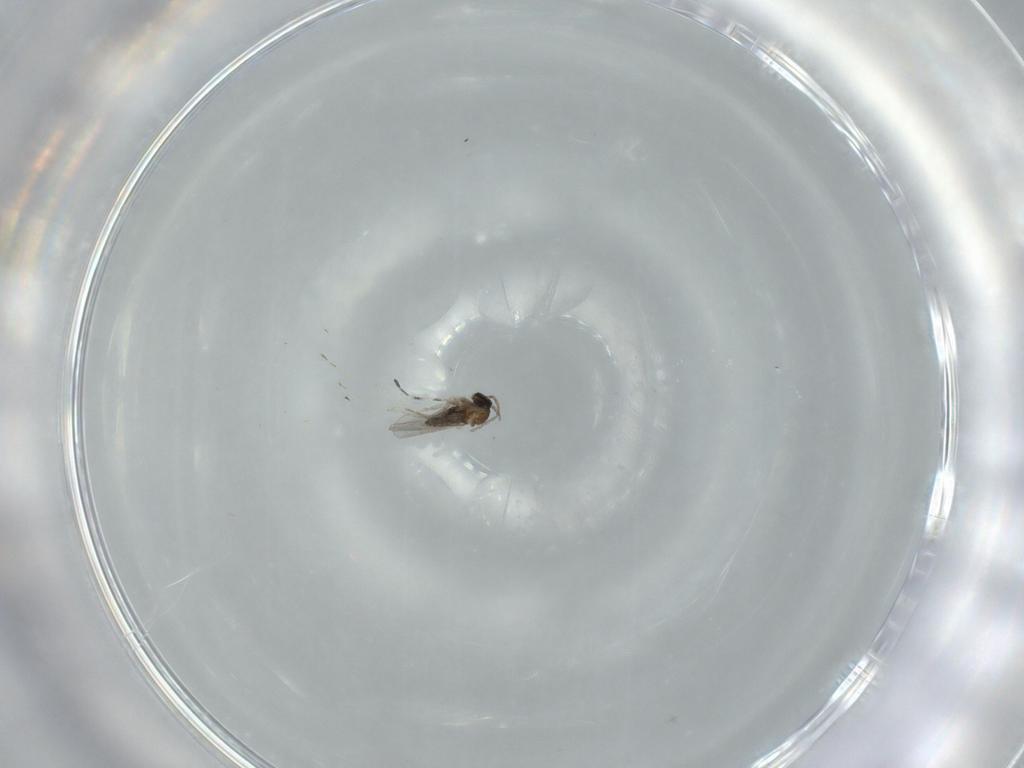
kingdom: Animalia
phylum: Arthropoda
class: Insecta
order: Diptera
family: Cecidomyiidae
